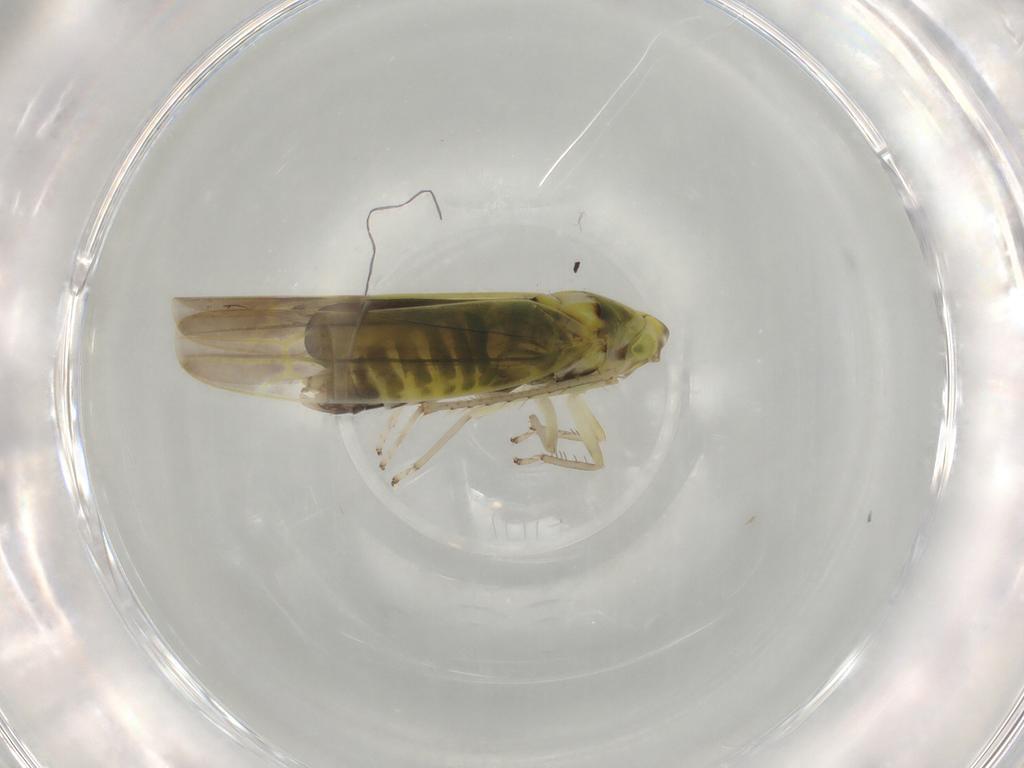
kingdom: Animalia
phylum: Arthropoda
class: Insecta
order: Hemiptera
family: Cicadellidae
